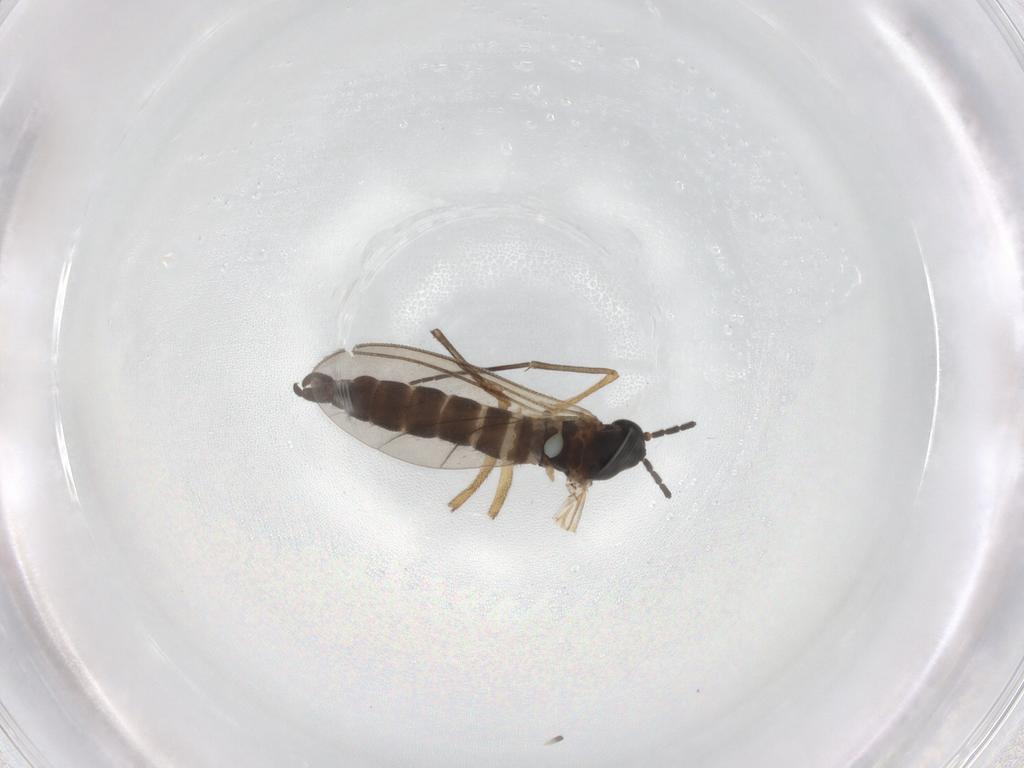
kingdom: Animalia
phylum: Arthropoda
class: Insecta
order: Diptera
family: Sciaridae
